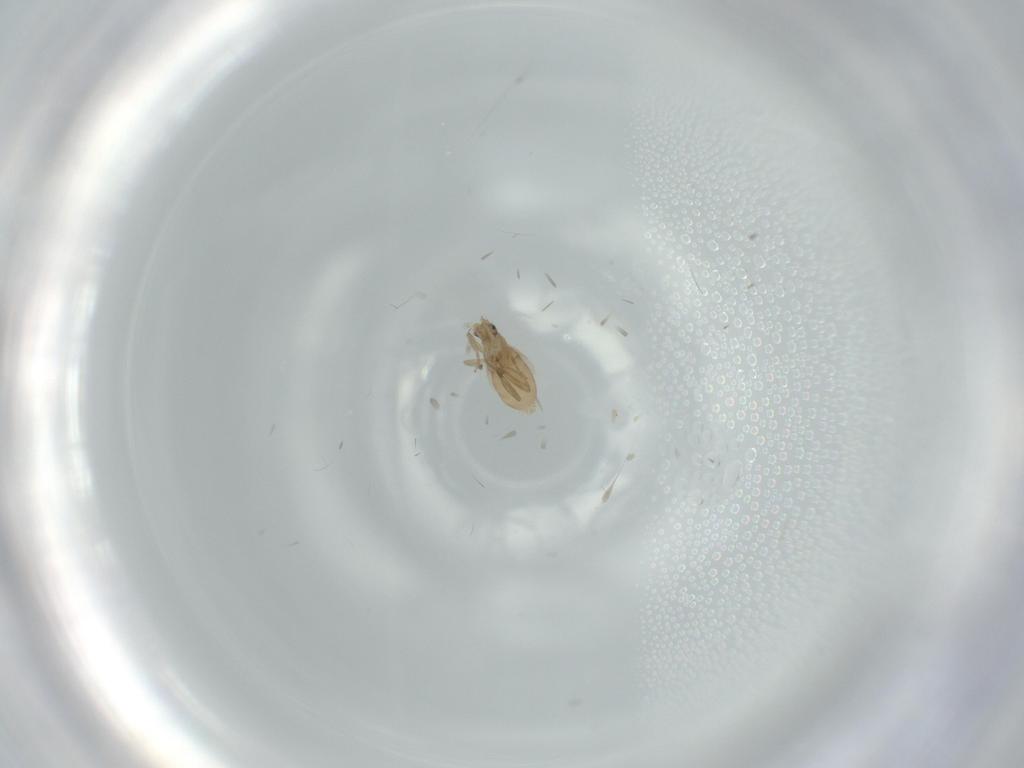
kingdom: Animalia
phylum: Arthropoda
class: Insecta
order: Diptera
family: Phoridae
